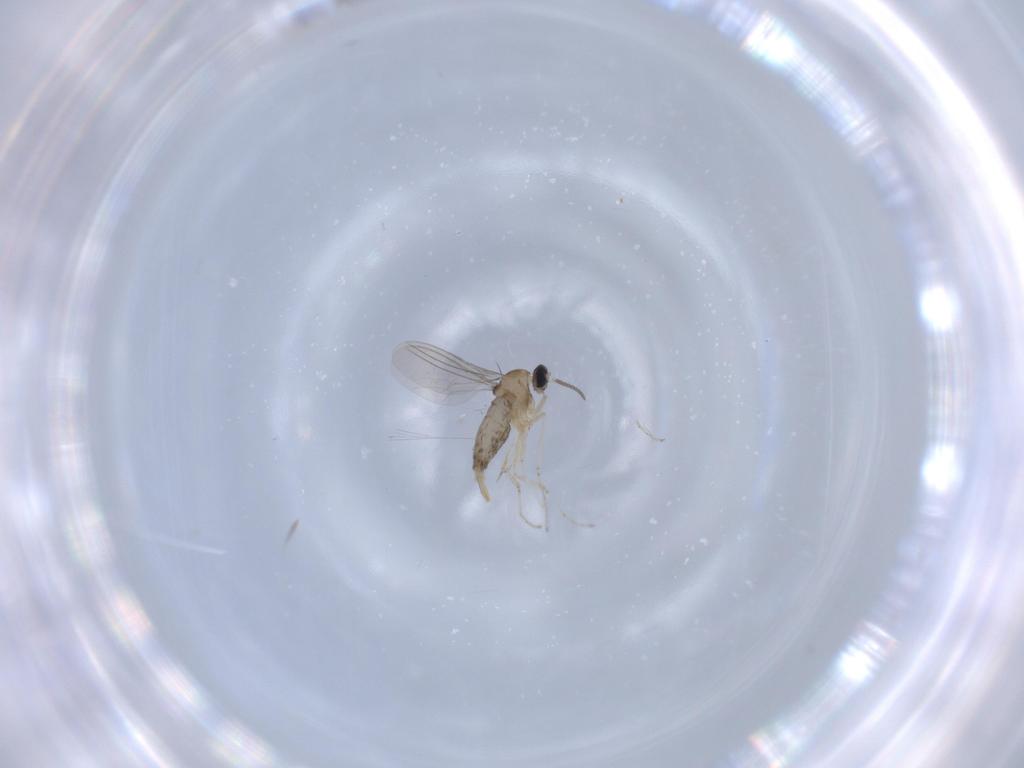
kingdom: Animalia
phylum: Arthropoda
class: Insecta
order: Diptera
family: Cecidomyiidae
